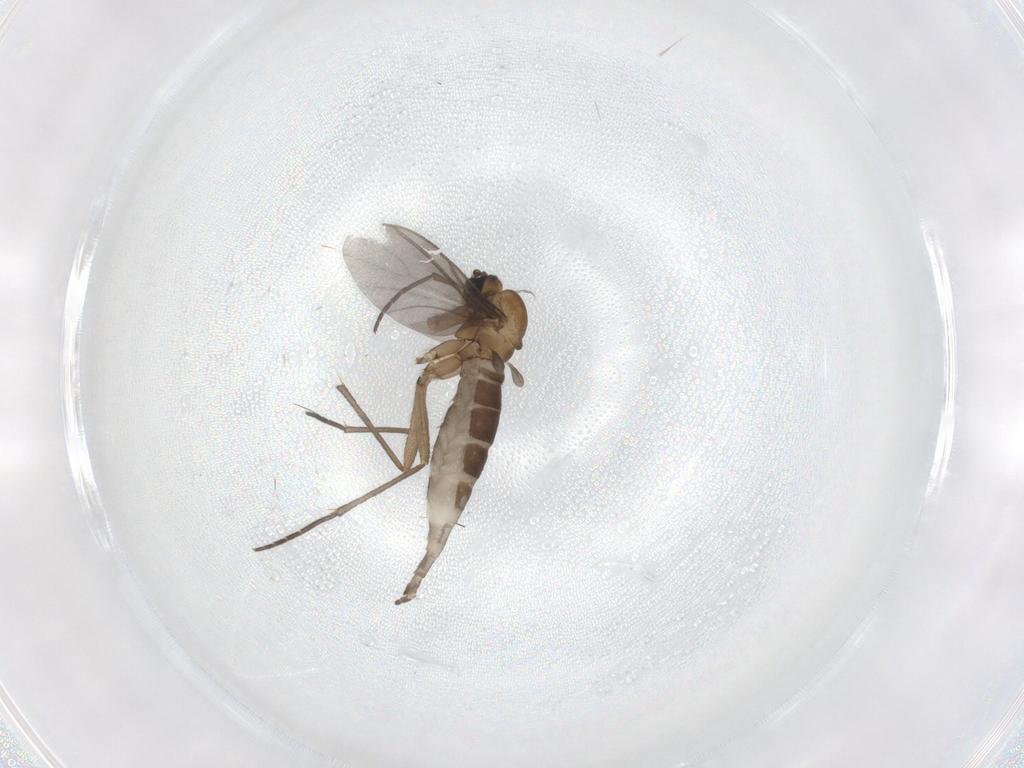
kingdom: Animalia
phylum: Arthropoda
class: Insecta
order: Diptera
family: Sciaridae
